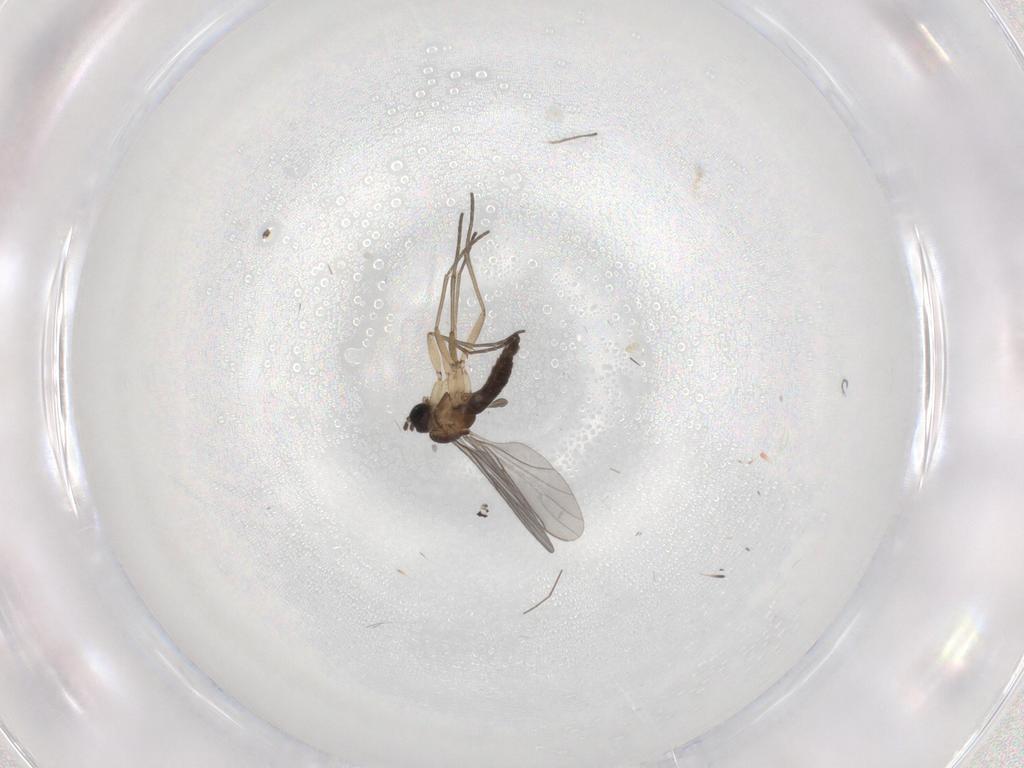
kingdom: Animalia
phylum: Arthropoda
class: Insecta
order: Diptera
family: Sciaridae
